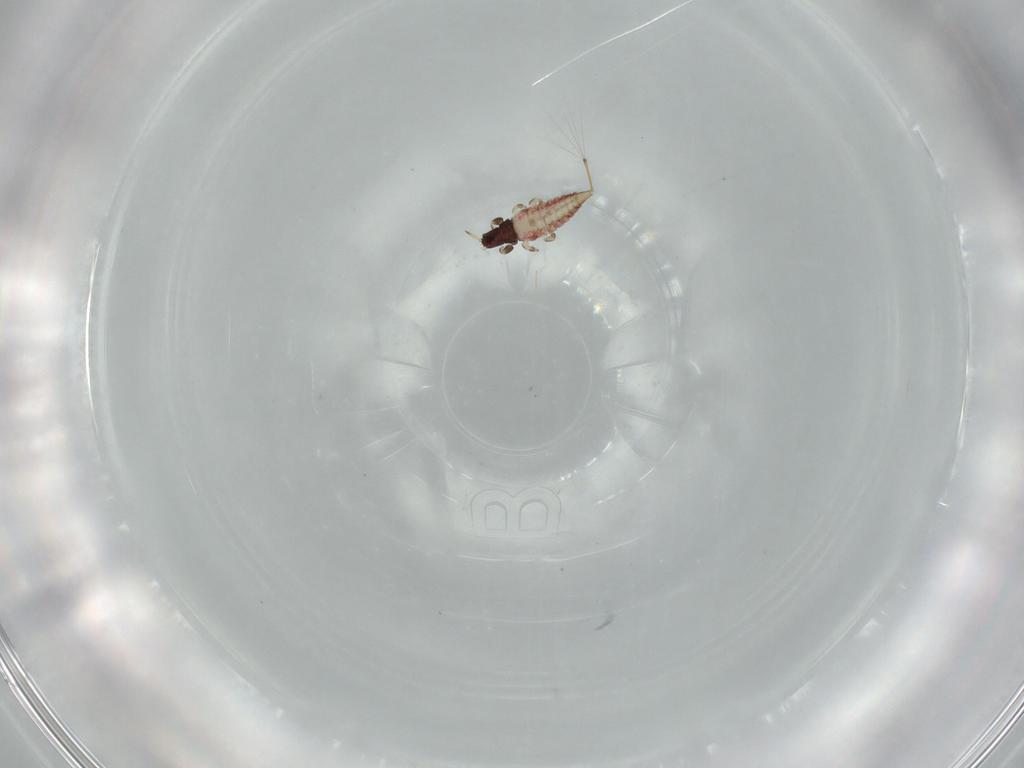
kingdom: Animalia
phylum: Arthropoda
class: Insecta
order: Thysanoptera
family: Phlaeothripidae
